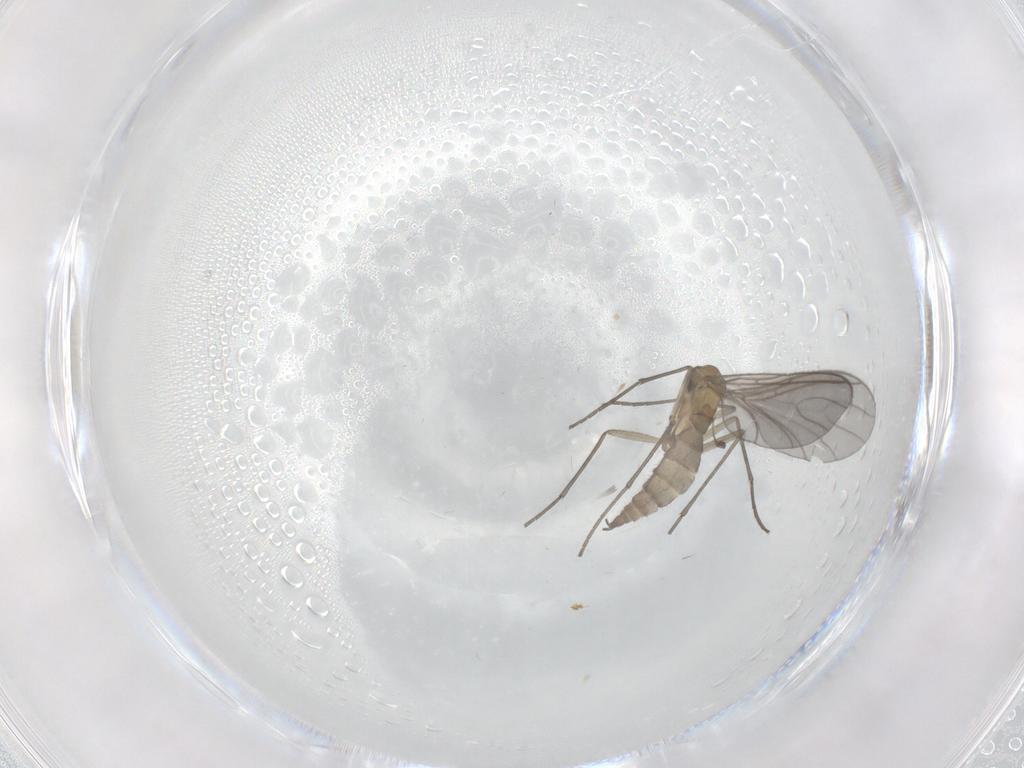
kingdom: Animalia
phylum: Arthropoda
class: Insecta
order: Diptera
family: Sciaridae
